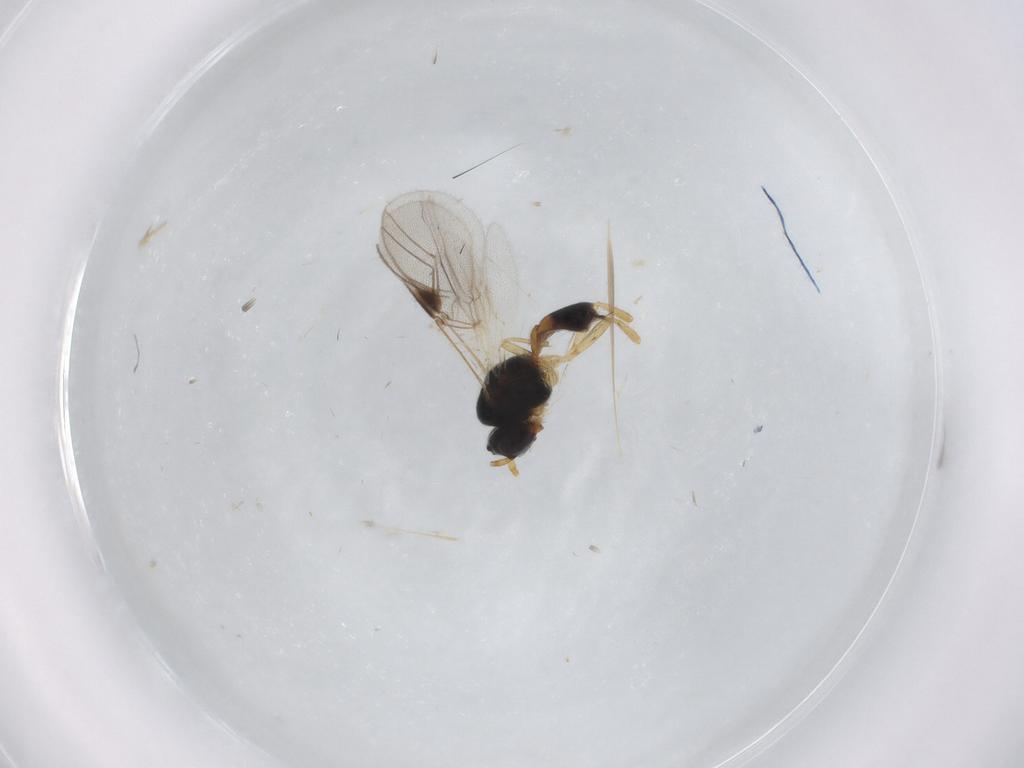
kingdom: Animalia
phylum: Arthropoda
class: Insecta
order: Hymenoptera
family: Braconidae
